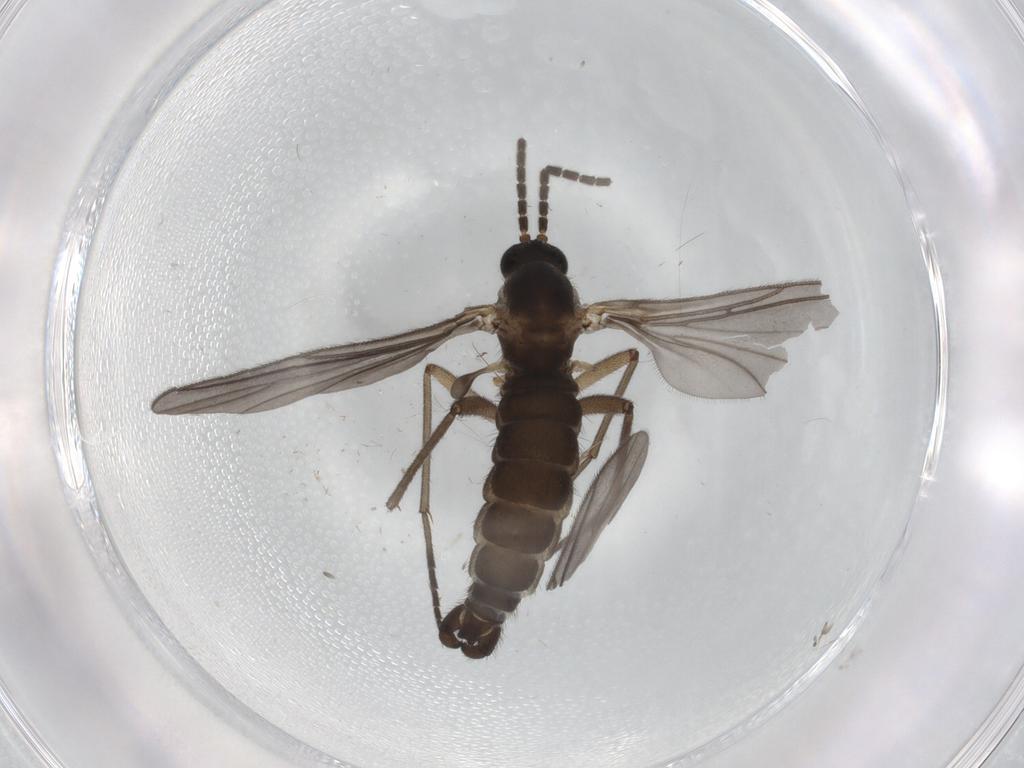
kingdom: Animalia
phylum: Arthropoda
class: Insecta
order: Diptera
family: Sciaridae
